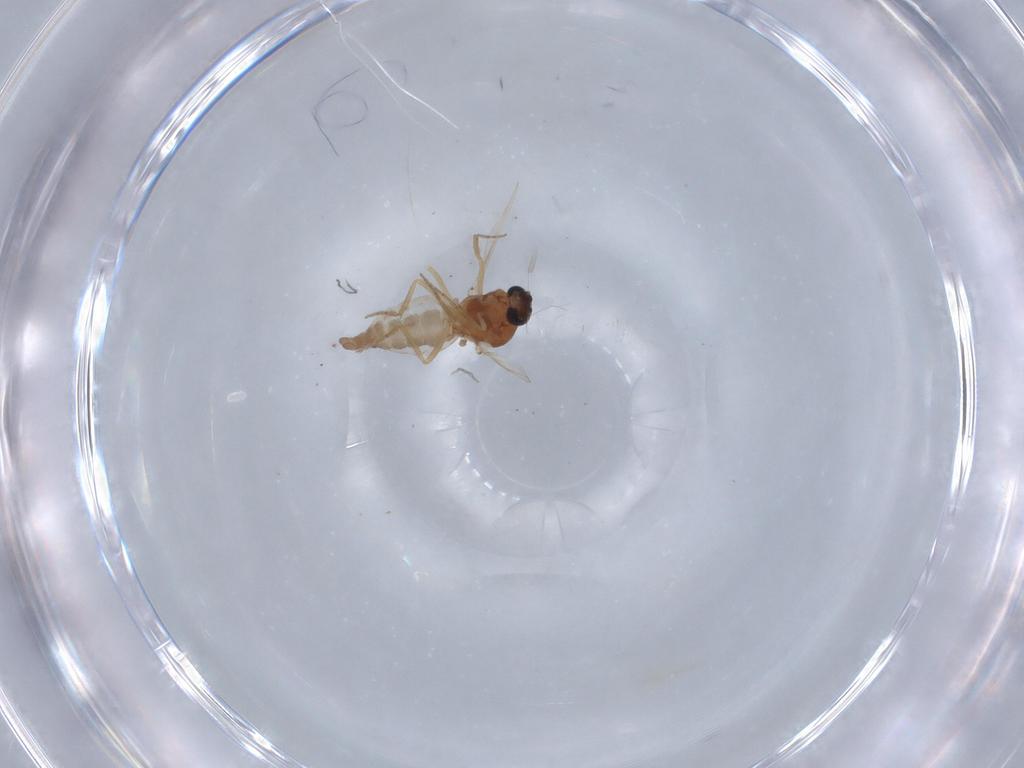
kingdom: Animalia
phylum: Arthropoda
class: Insecta
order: Diptera
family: Ceratopogonidae
